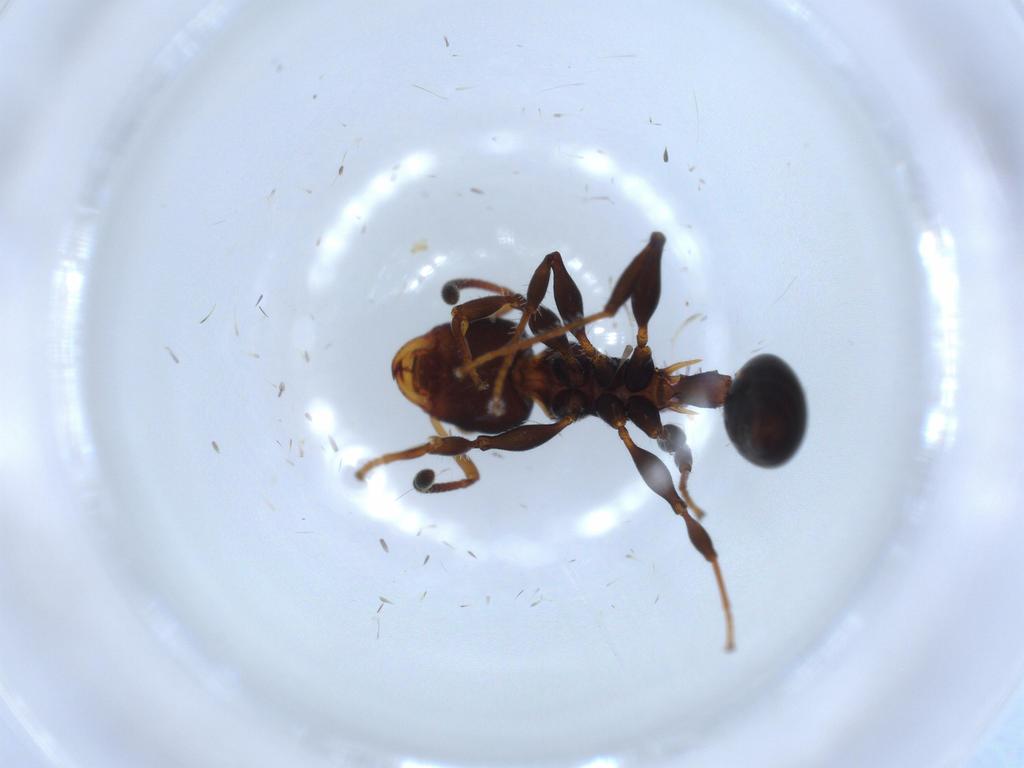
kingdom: Animalia
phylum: Arthropoda
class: Insecta
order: Hymenoptera
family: Formicidae
